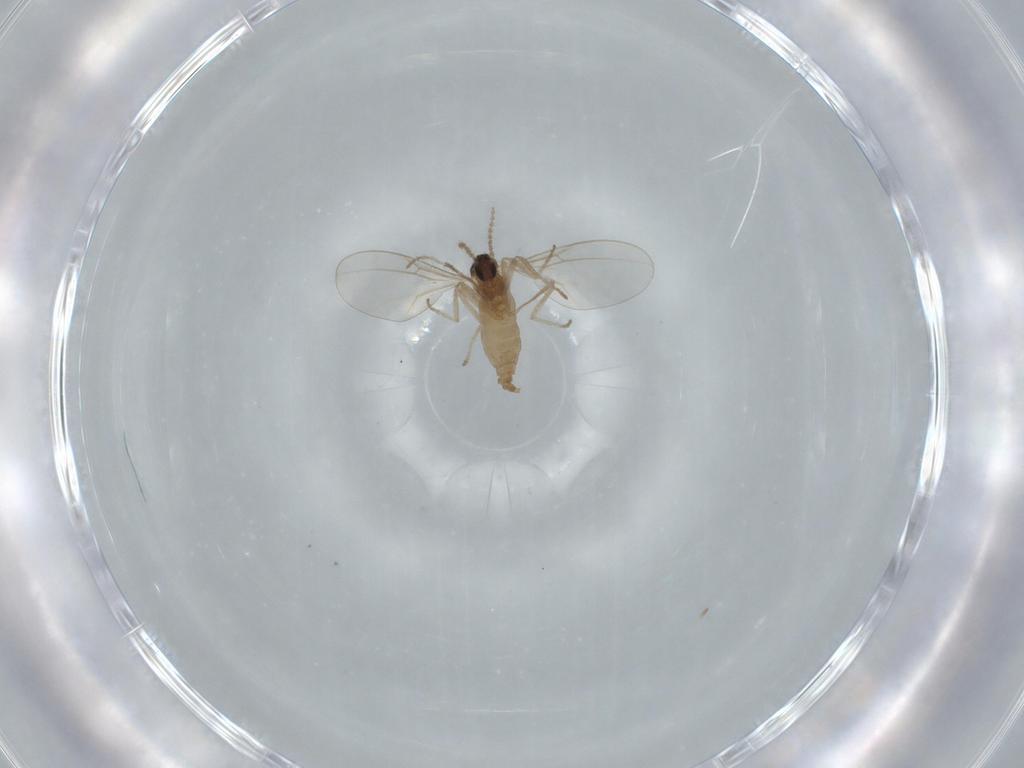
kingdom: Animalia
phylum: Arthropoda
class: Insecta
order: Diptera
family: Cecidomyiidae
